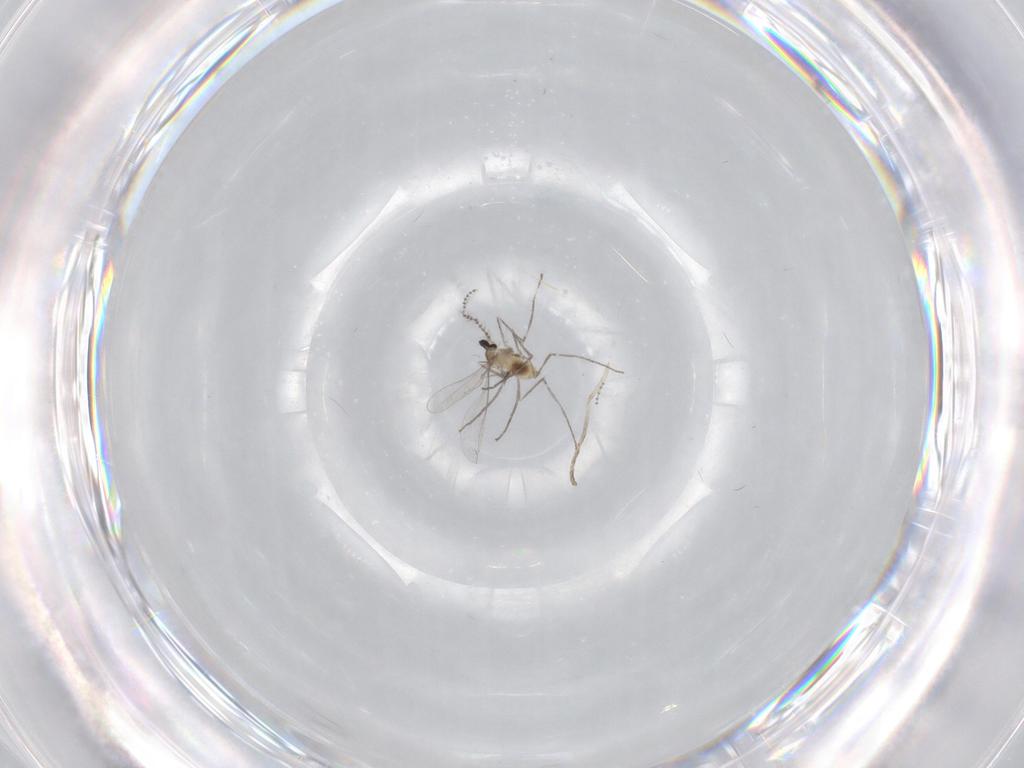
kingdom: Animalia
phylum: Arthropoda
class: Insecta
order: Diptera
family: Cecidomyiidae
